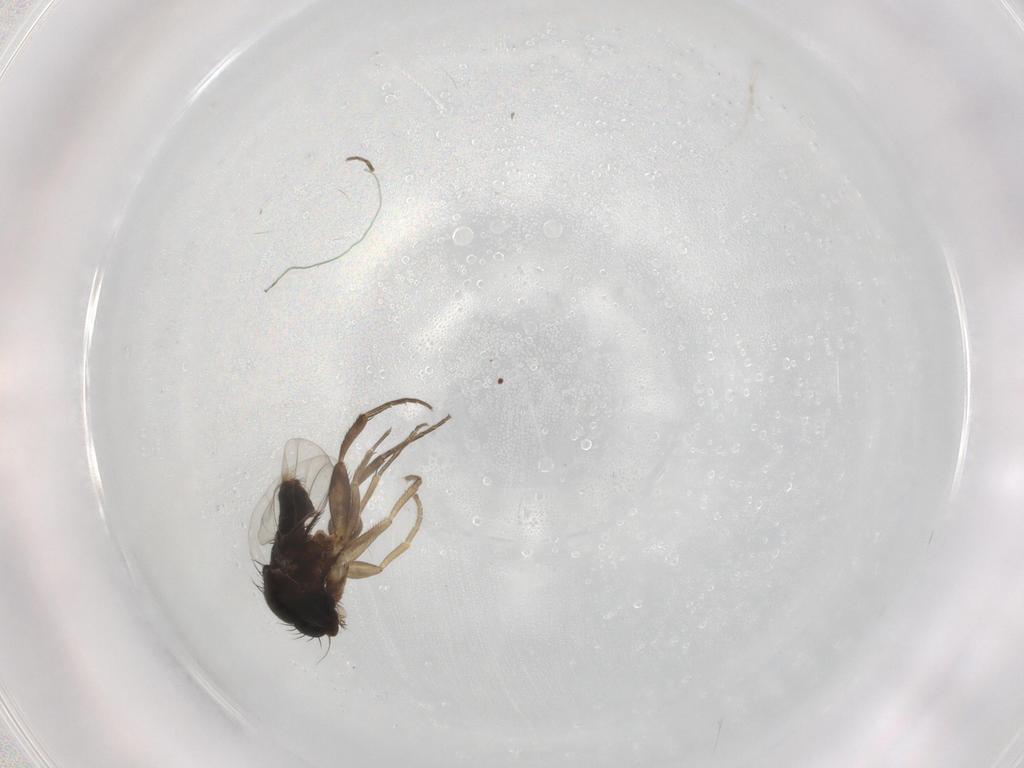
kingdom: Animalia
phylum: Arthropoda
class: Insecta
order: Diptera
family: Phoridae
